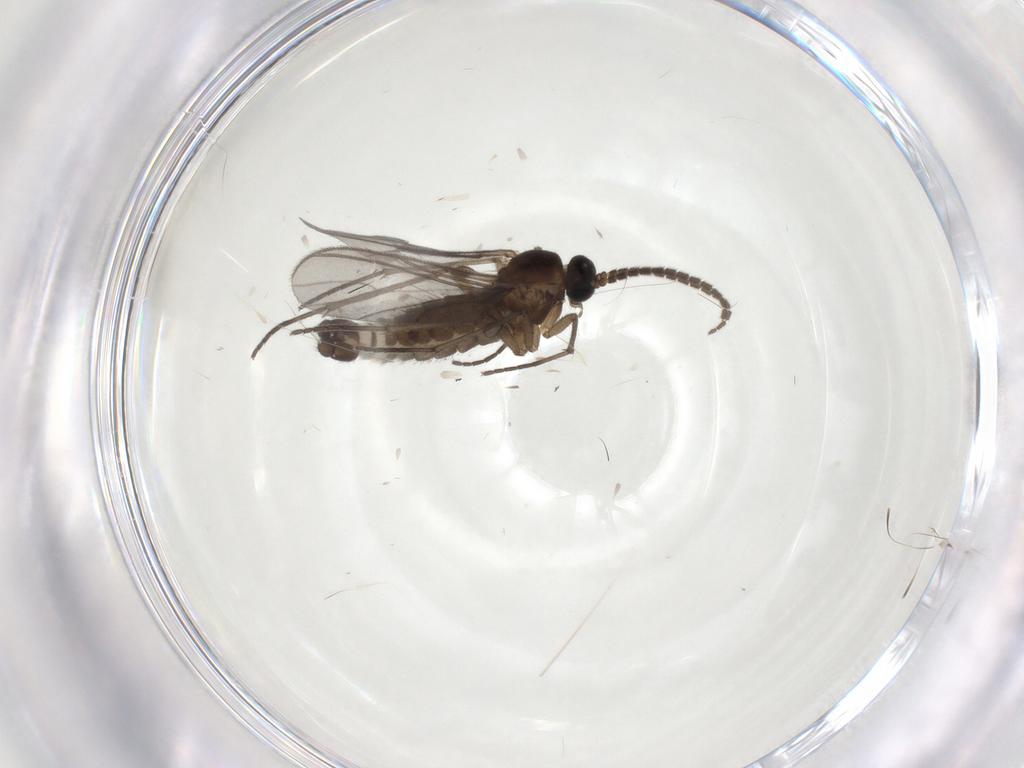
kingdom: Animalia
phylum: Arthropoda
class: Insecta
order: Diptera
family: Sciaridae
